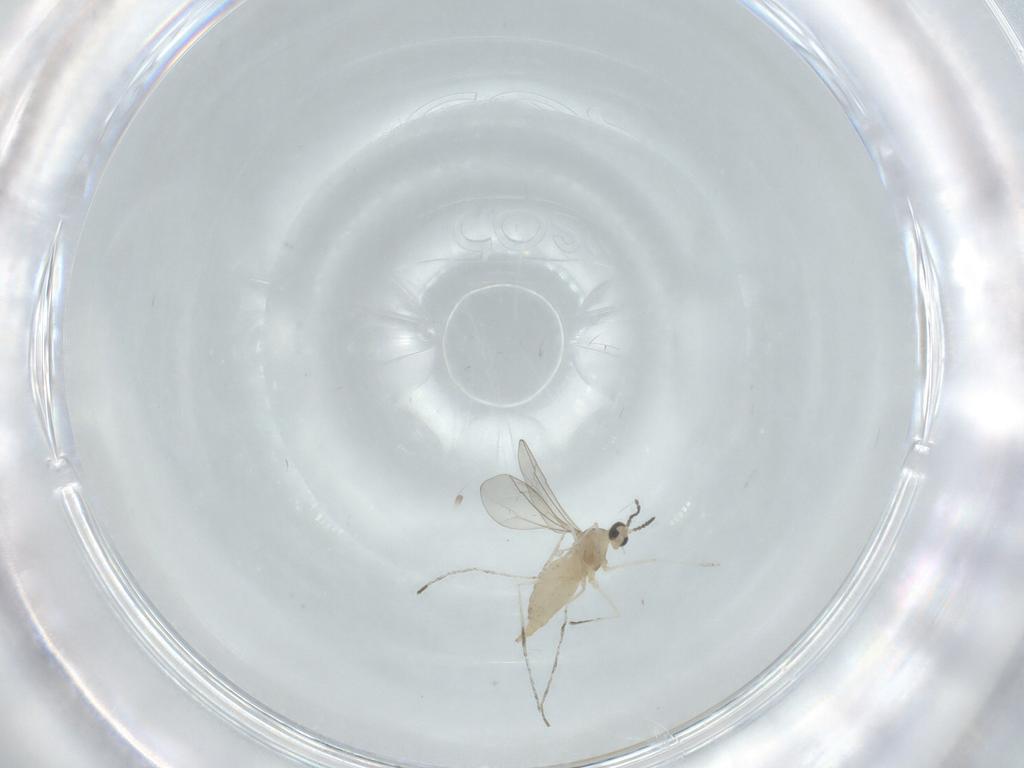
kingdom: Animalia
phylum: Arthropoda
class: Insecta
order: Diptera
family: Cecidomyiidae
